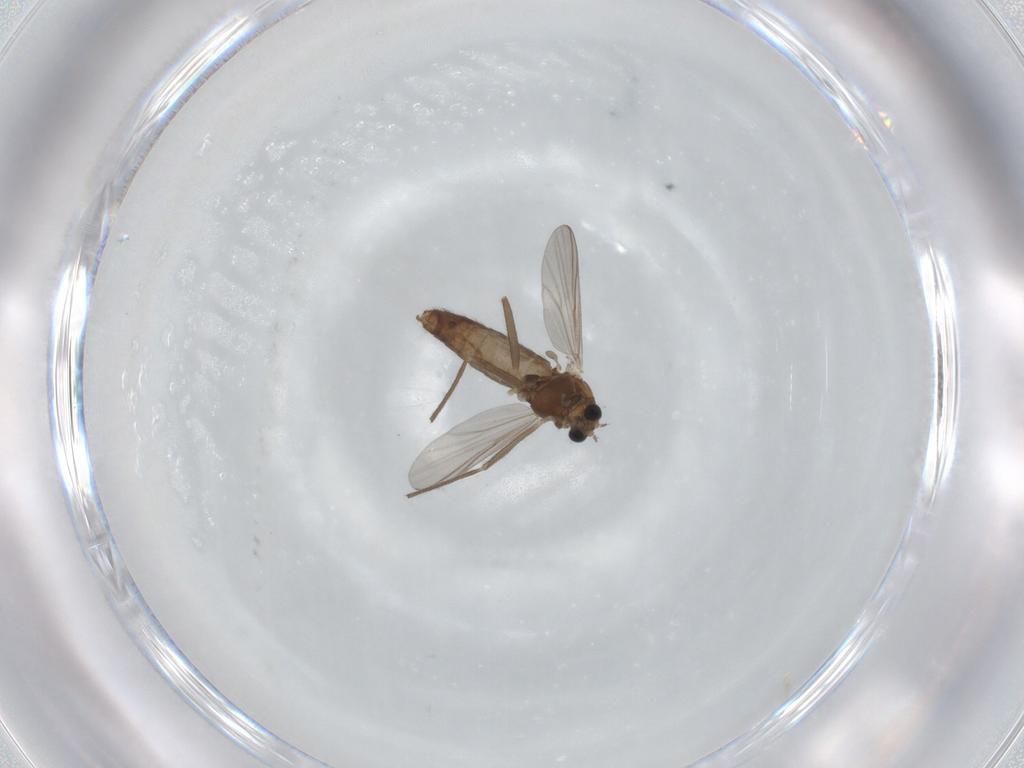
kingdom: Animalia
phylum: Arthropoda
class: Insecta
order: Diptera
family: Chironomidae
